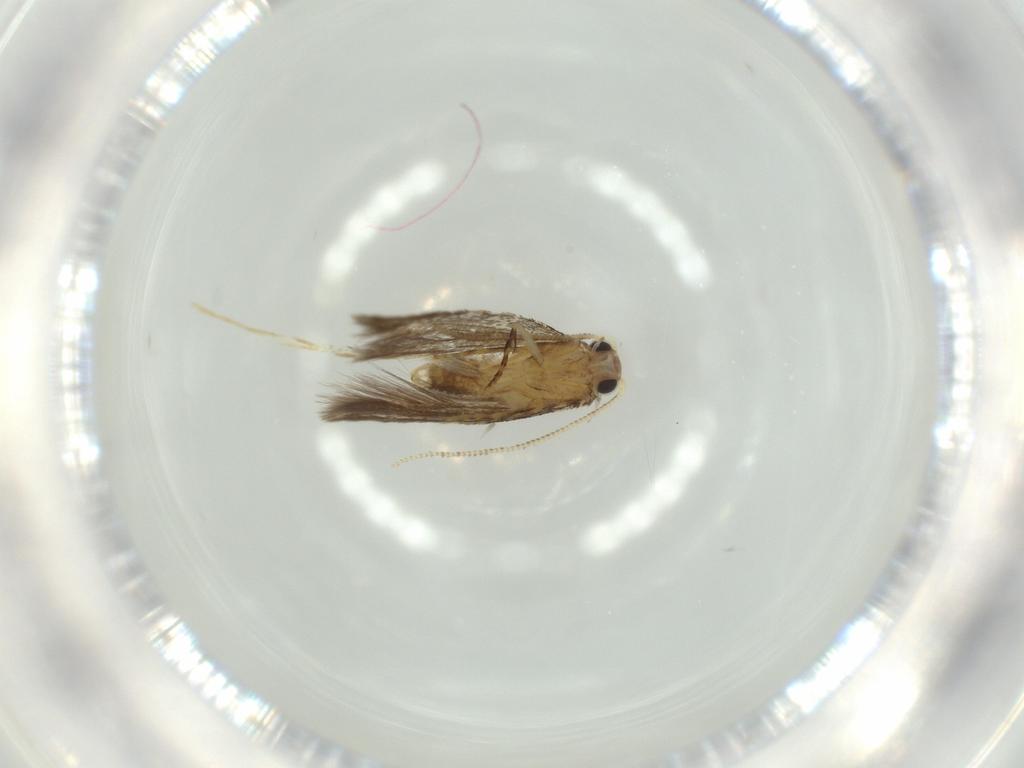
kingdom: Animalia
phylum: Arthropoda
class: Insecta
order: Lepidoptera
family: Tineidae
